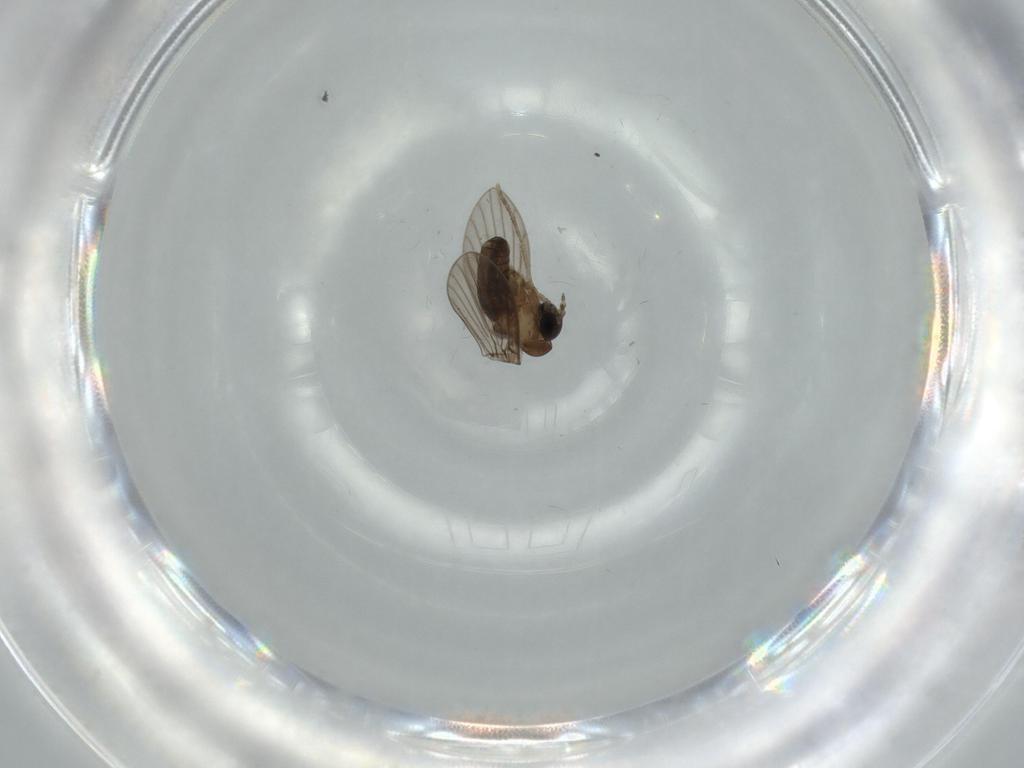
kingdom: Animalia
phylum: Arthropoda
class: Insecta
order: Diptera
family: Psychodidae
